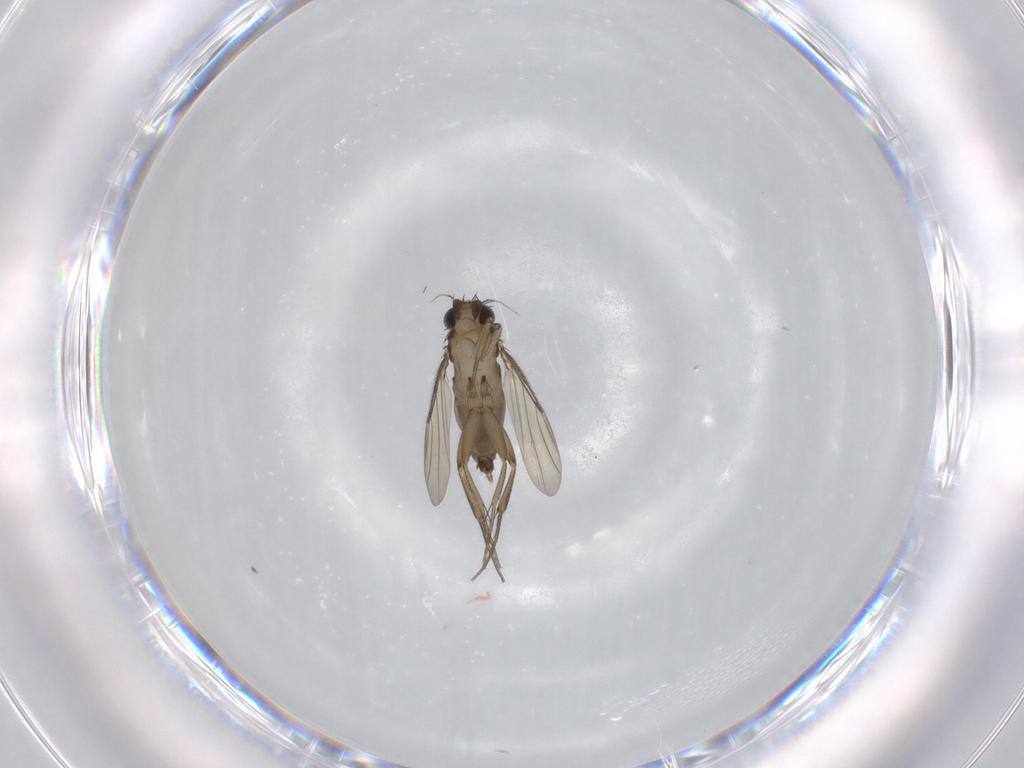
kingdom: Animalia
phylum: Arthropoda
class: Insecta
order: Diptera
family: Phoridae
